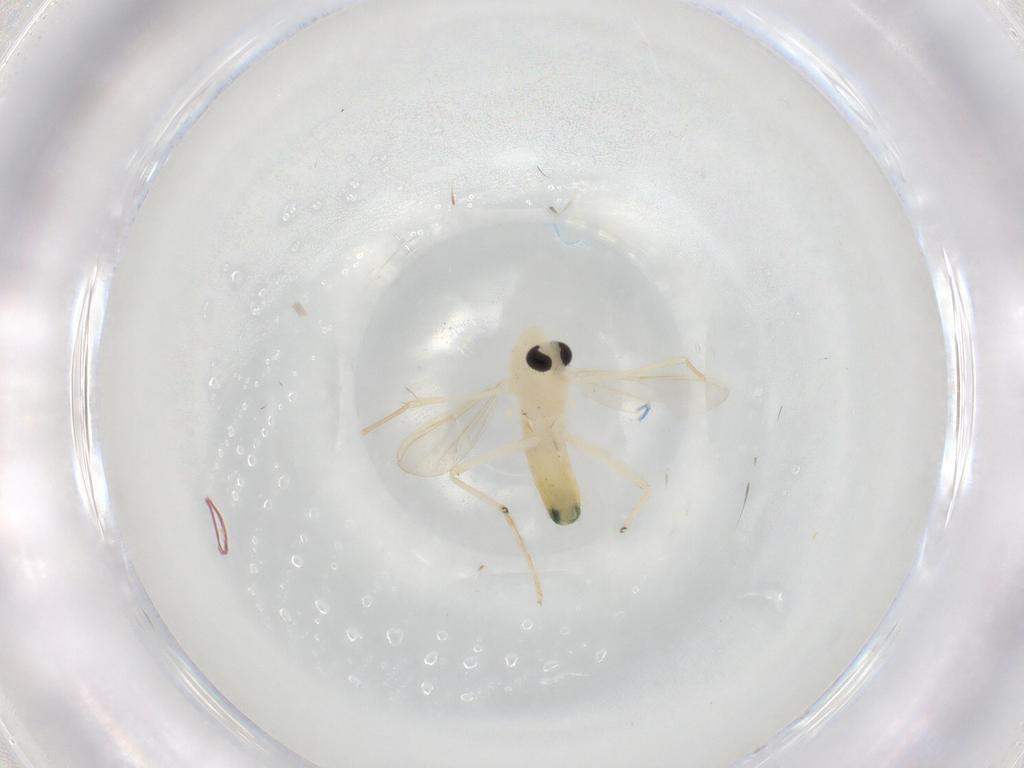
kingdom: Animalia
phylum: Arthropoda
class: Insecta
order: Diptera
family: Chironomidae
